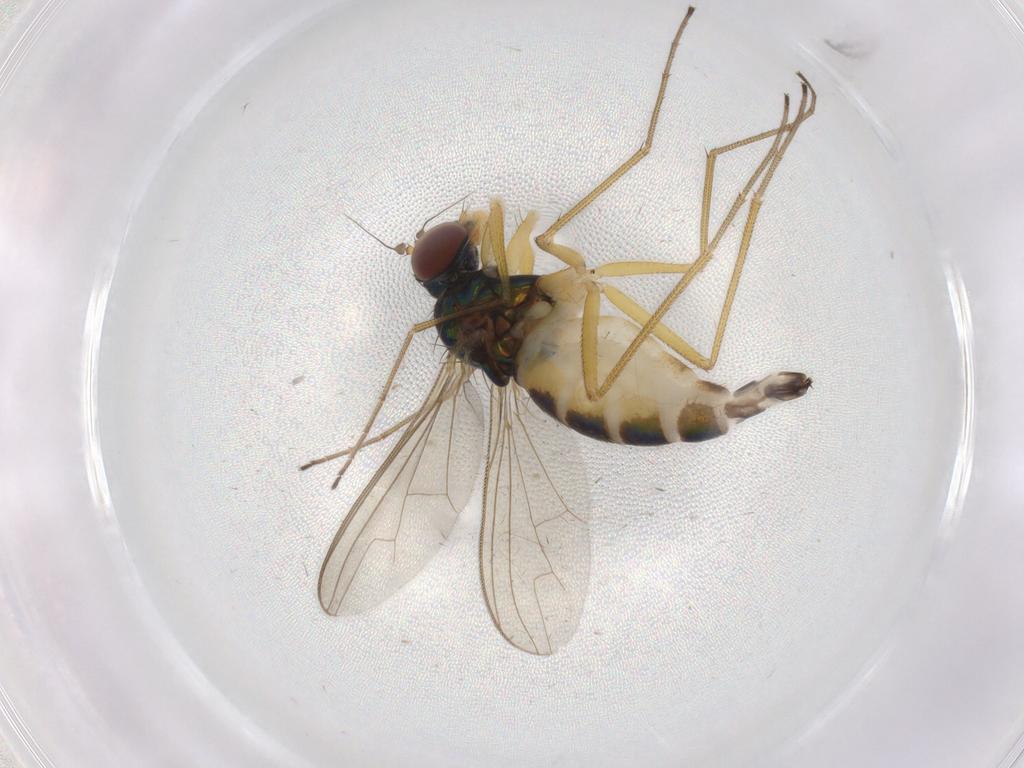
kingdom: Animalia
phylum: Arthropoda
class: Insecta
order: Diptera
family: Dolichopodidae
